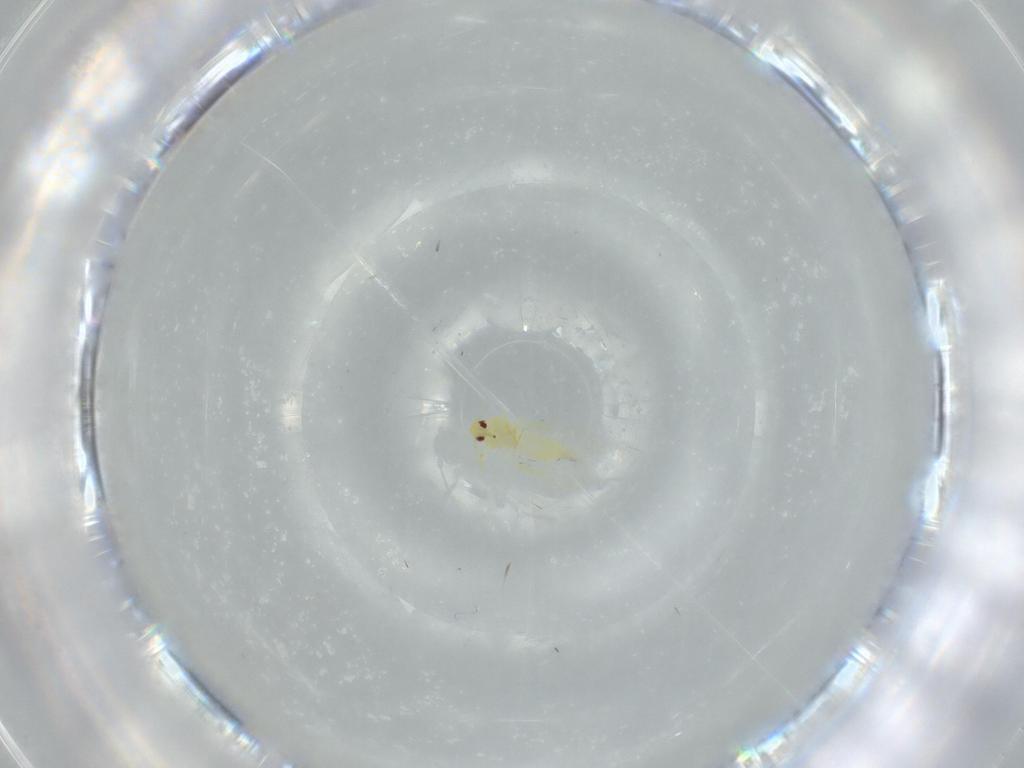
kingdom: Animalia
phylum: Arthropoda
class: Insecta
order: Hemiptera
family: Aleyrodidae
